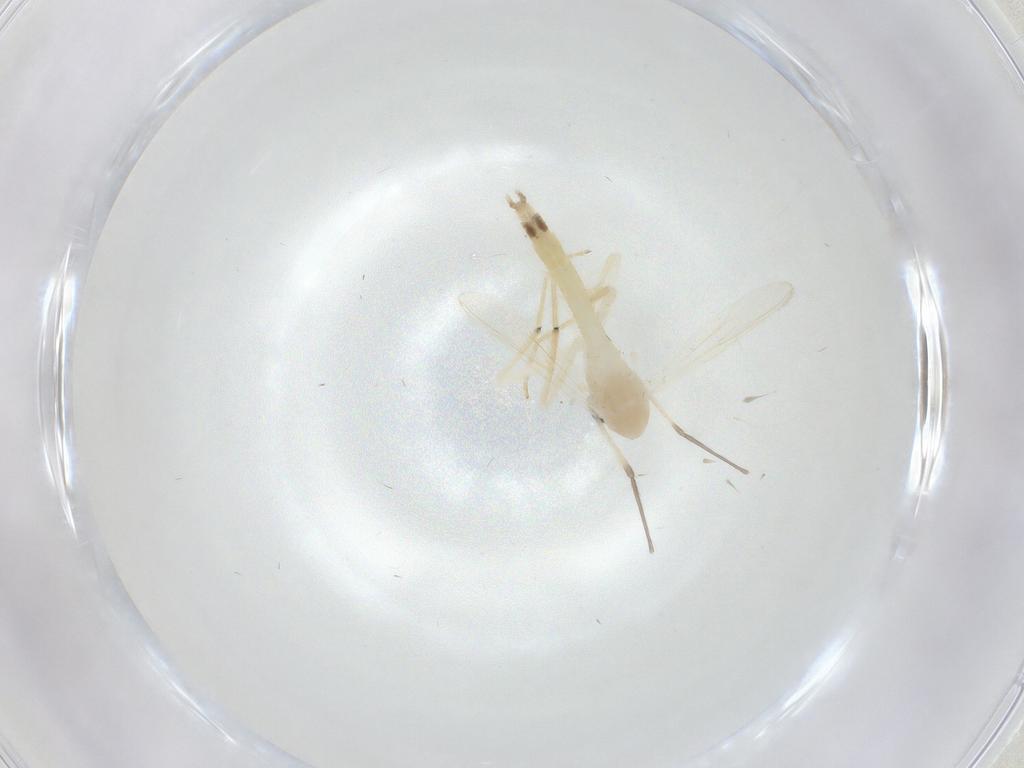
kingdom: Animalia
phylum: Arthropoda
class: Insecta
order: Diptera
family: Chironomidae
